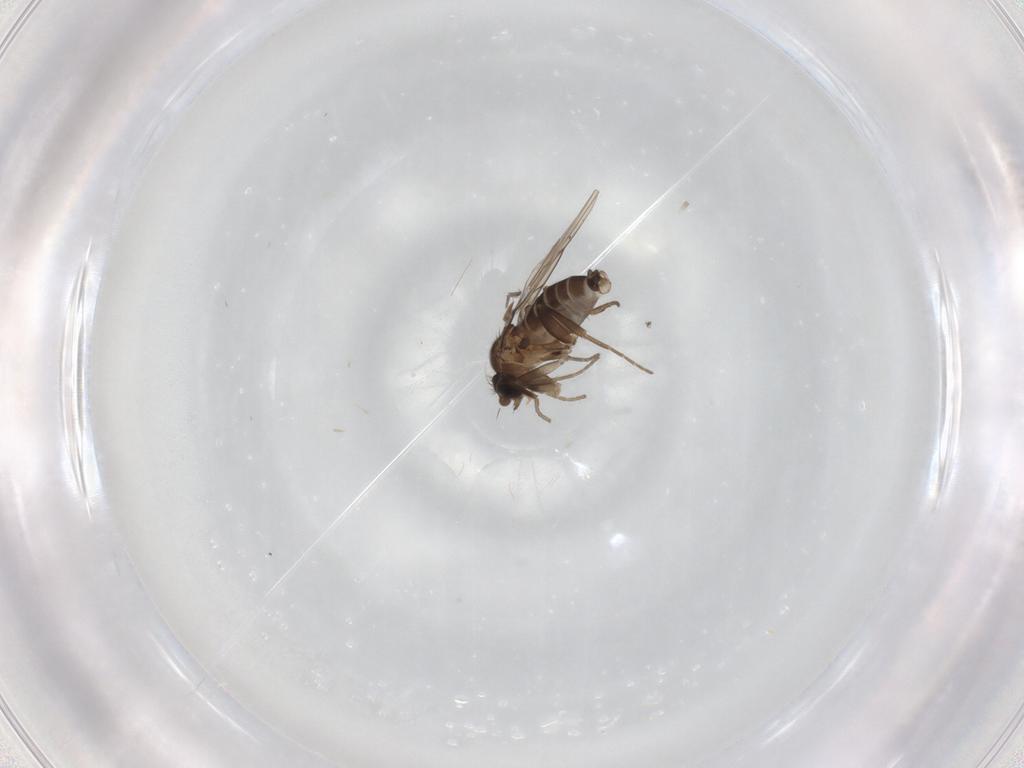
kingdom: Animalia
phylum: Arthropoda
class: Insecta
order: Diptera
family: Phoridae
